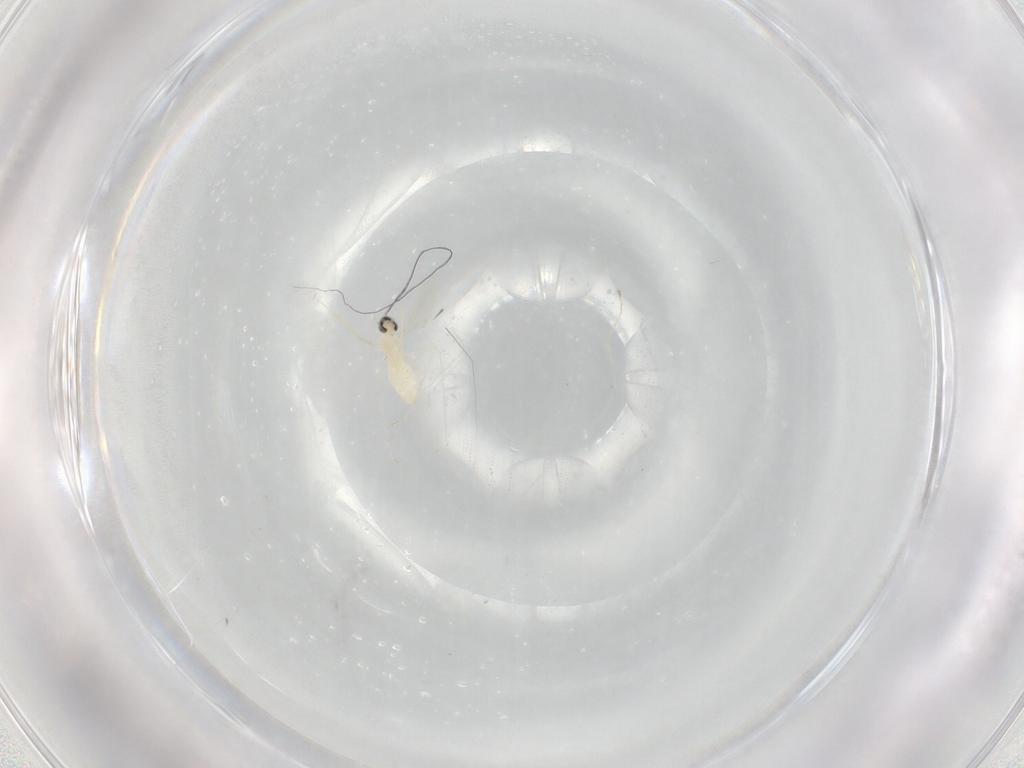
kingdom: Animalia
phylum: Arthropoda
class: Insecta
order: Diptera
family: Cecidomyiidae
